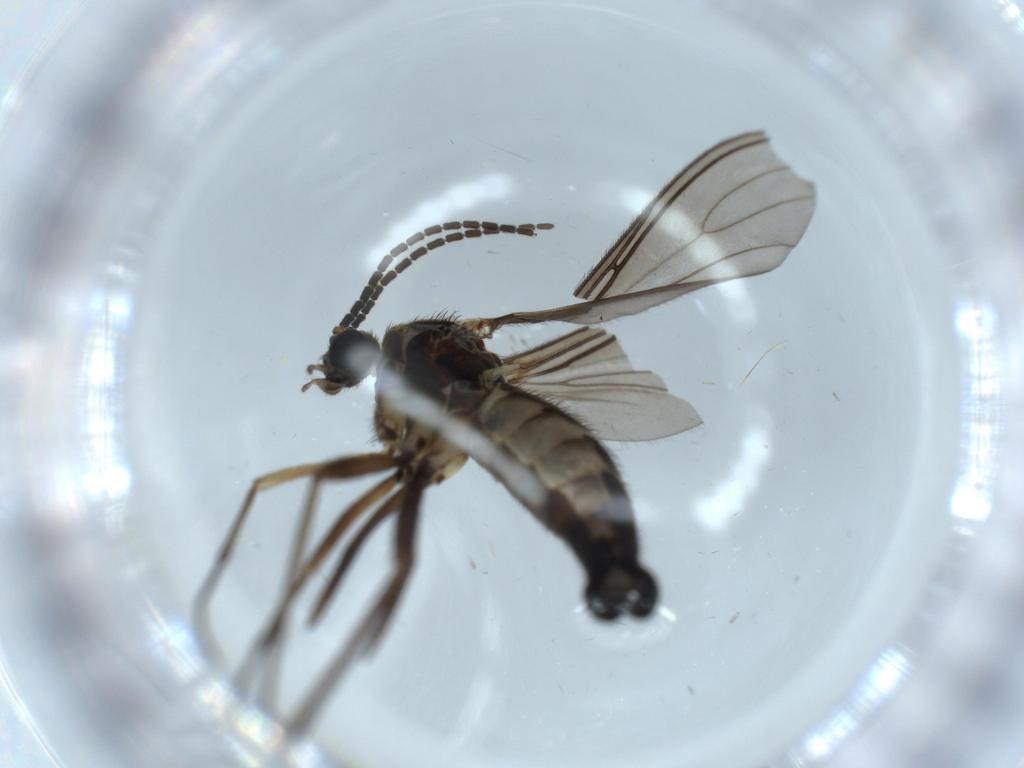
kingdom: Animalia
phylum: Arthropoda
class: Insecta
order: Diptera
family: Sciaridae
